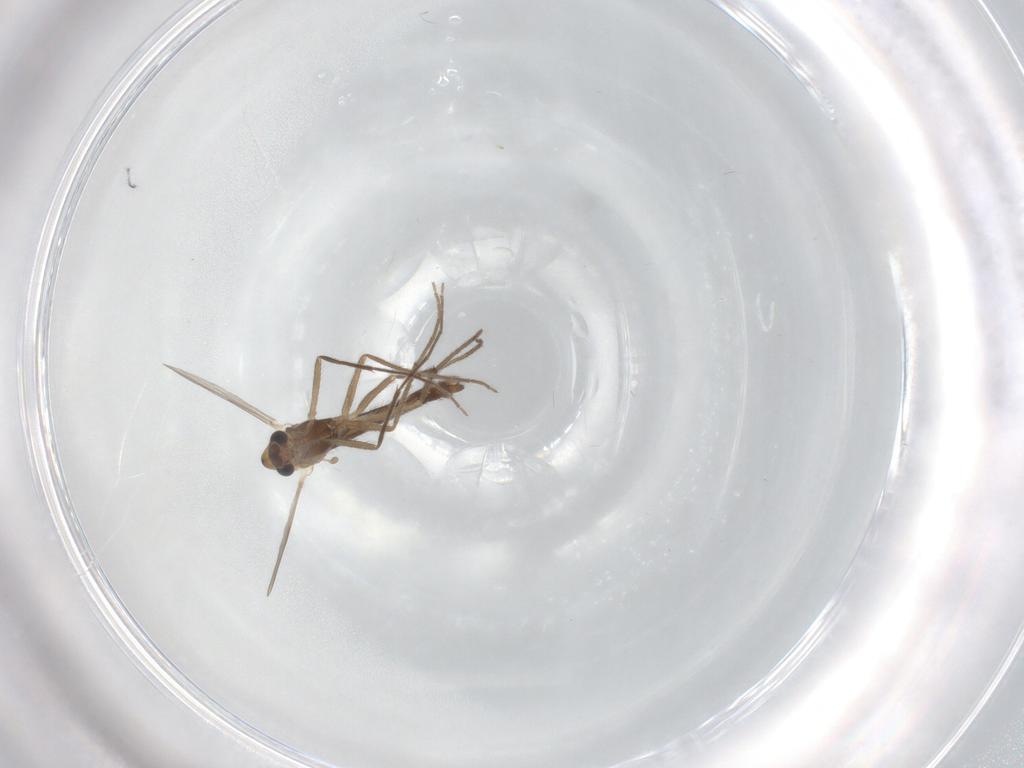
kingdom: Animalia
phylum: Arthropoda
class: Insecta
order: Diptera
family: Chironomidae
